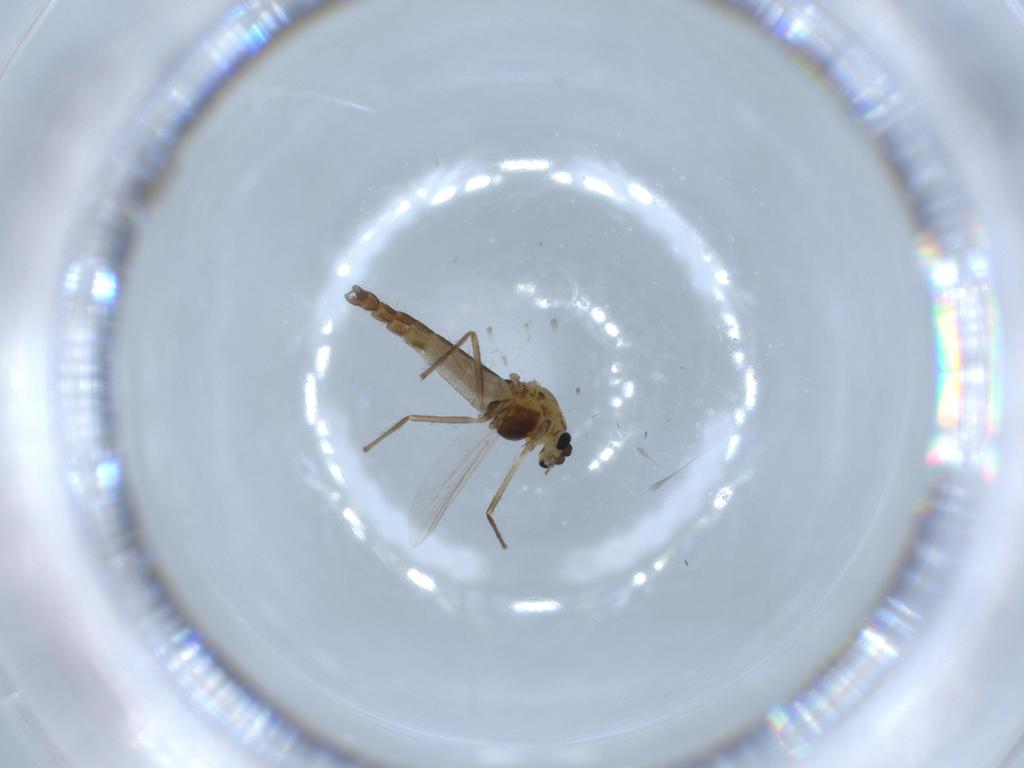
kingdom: Animalia
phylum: Arthropoda
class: Insecta
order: Diptera
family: Chironomidae
